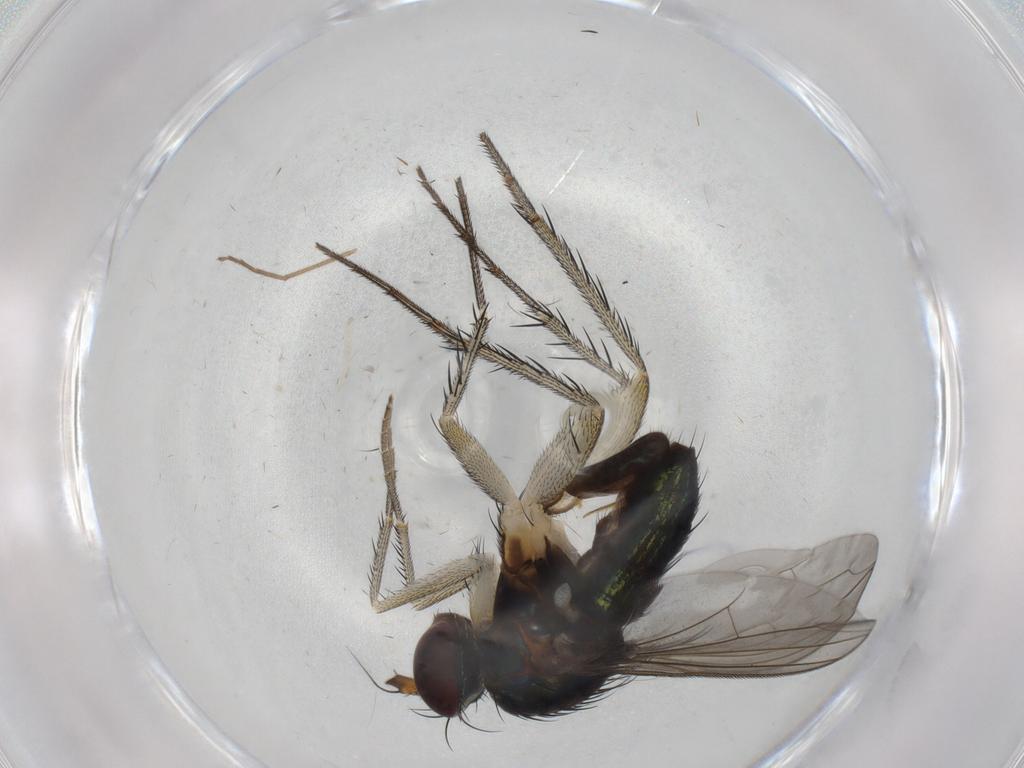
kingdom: Animalia
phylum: Arthropoda
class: Insecta
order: Diptera
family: Dolichopodidae
